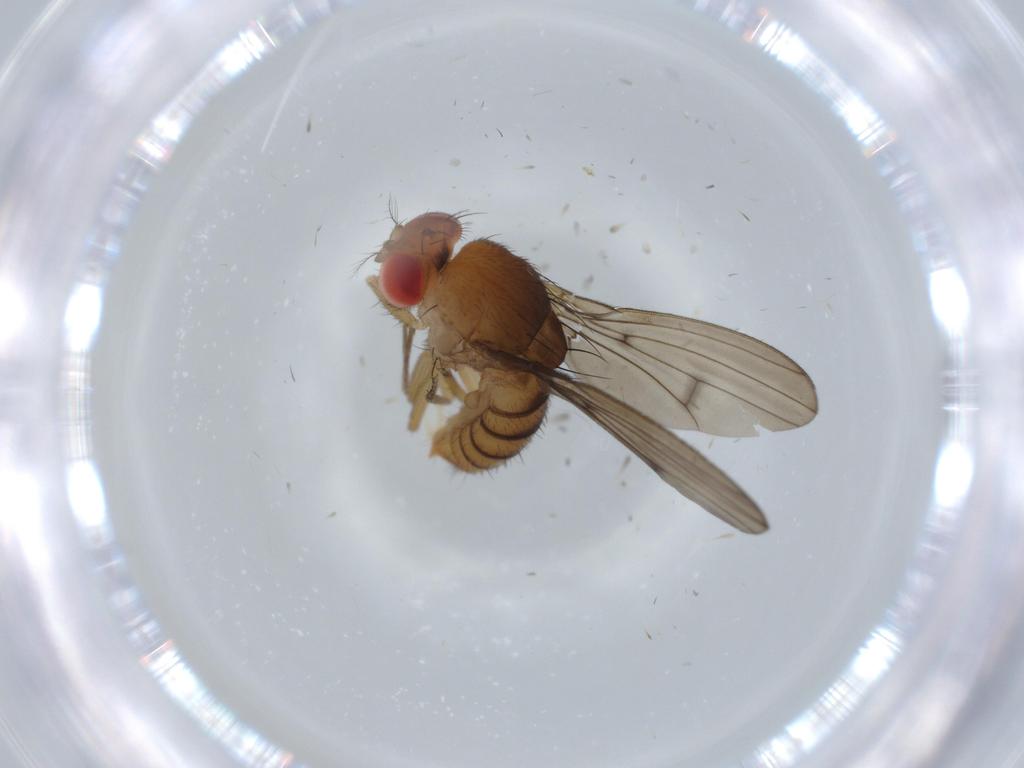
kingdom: Animalia
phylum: Arthropoda
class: Insecta
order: Diptera
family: Drosophilidae
